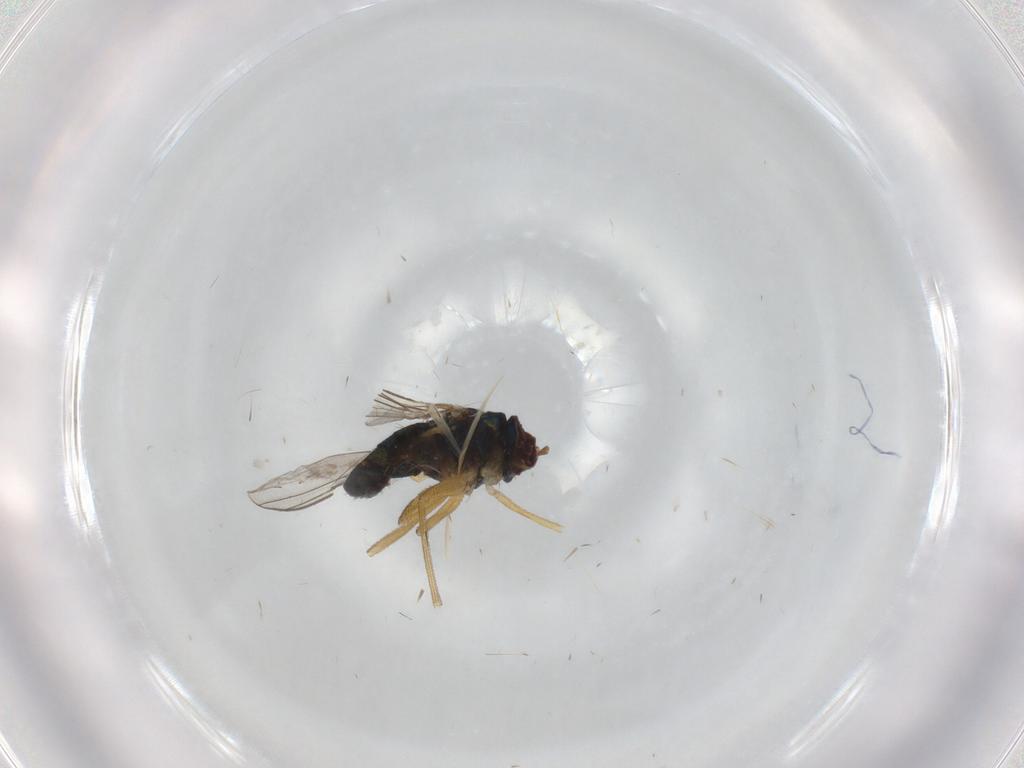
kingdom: Animalia
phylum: Arthropoda
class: Insecta
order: Diptera
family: Dolichopodidae
